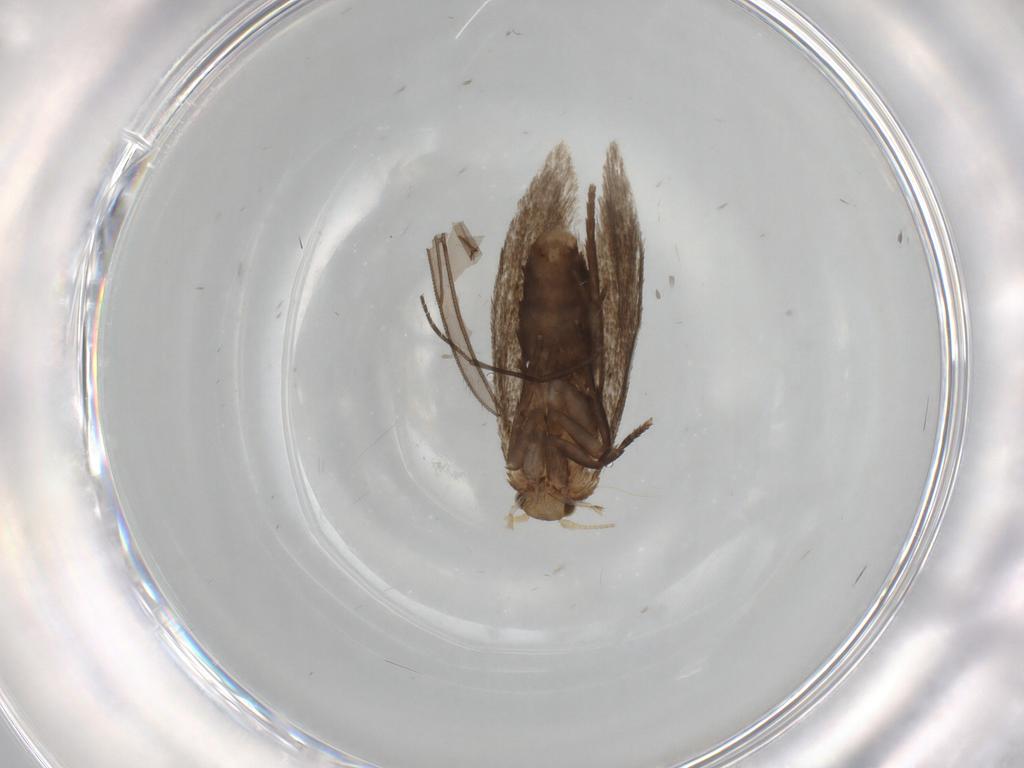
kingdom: Animalia
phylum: Arthropoda
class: Insecta
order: Lepidoptera
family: Dryadaulidae
